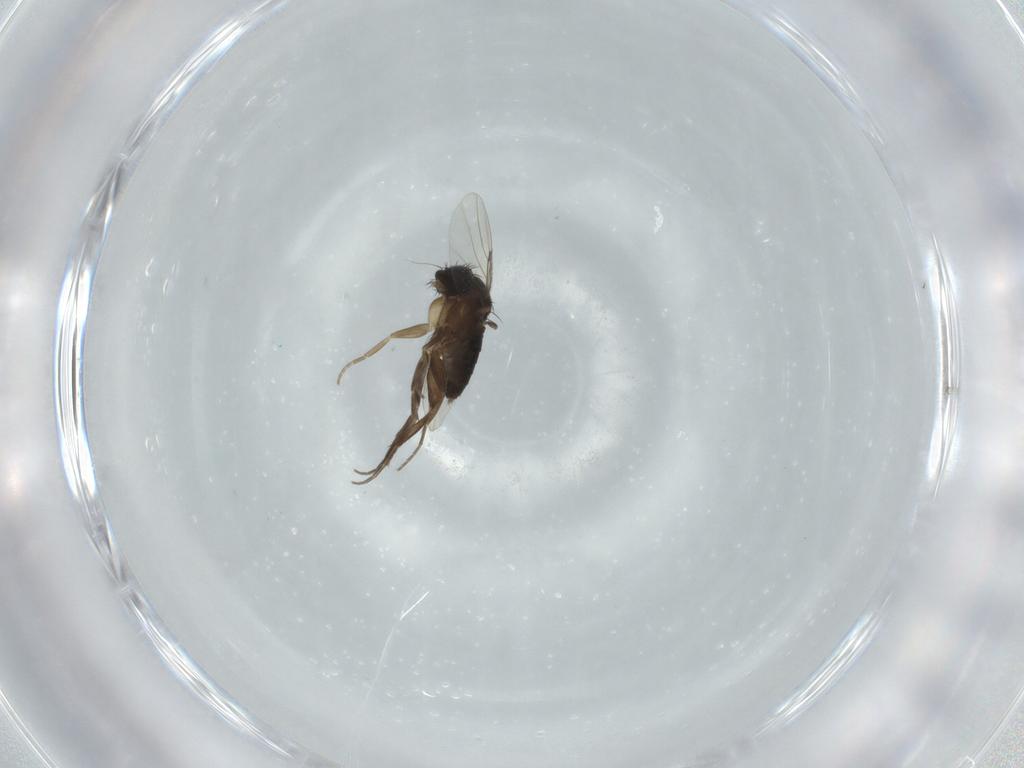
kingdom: Animalia
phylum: Arthropoda
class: Insecta
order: Diptera
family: Phoridae
